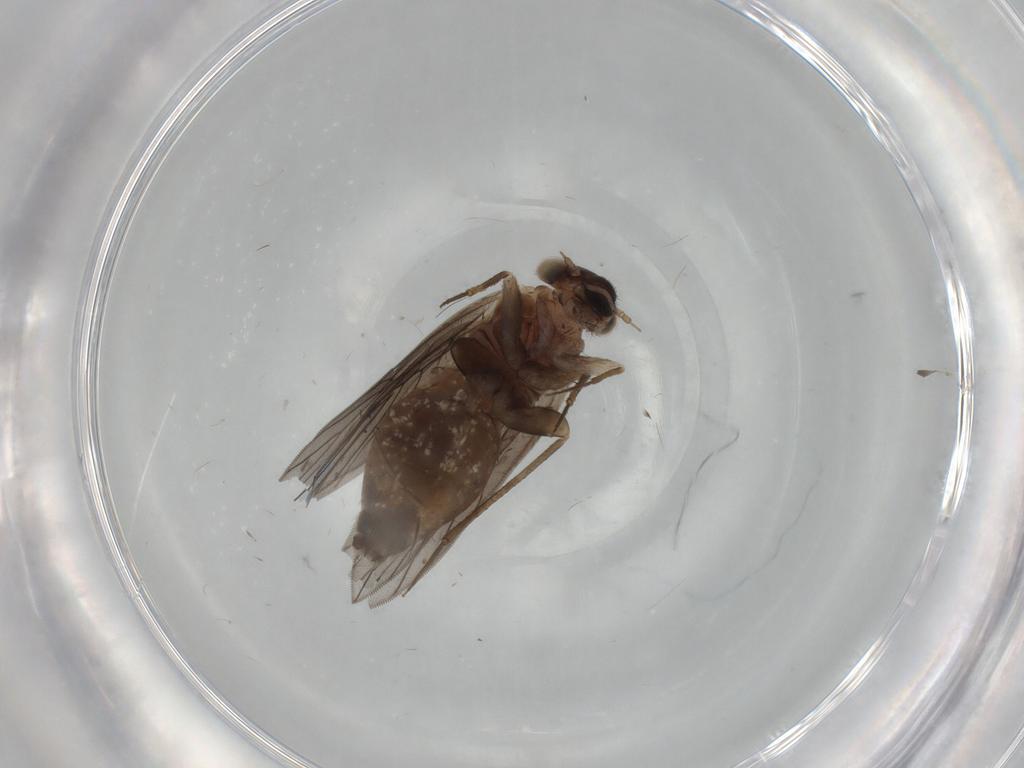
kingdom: Animalia
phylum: Arthropoda
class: Insecta
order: Psocodea
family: Lepidopsocidae
